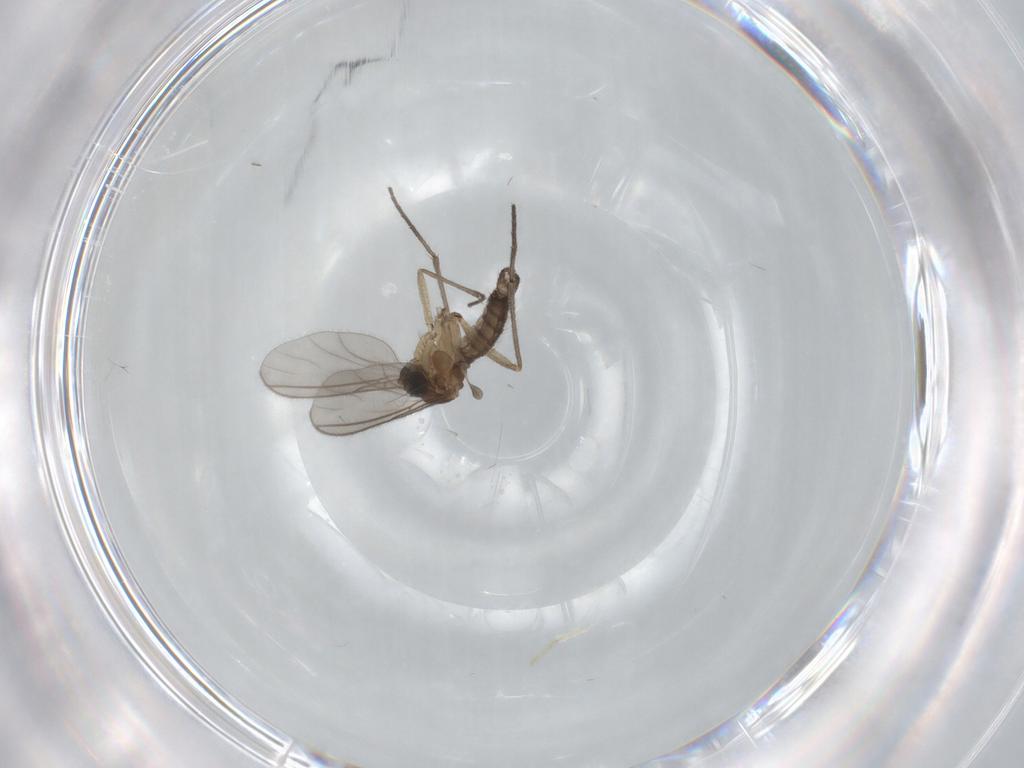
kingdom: Animalia
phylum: Arthropoda
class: Insecta
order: Diptera
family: Sciaridae
